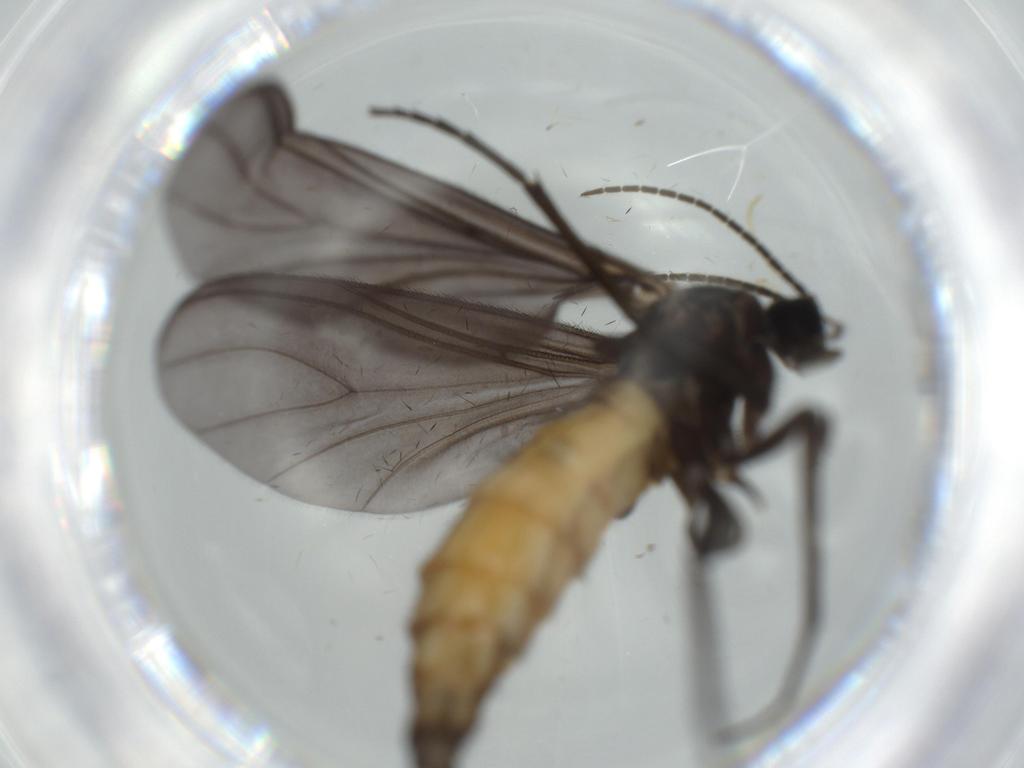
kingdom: Animalia
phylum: Arthropoda
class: Insecta
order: Diptera
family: Chironomidae
